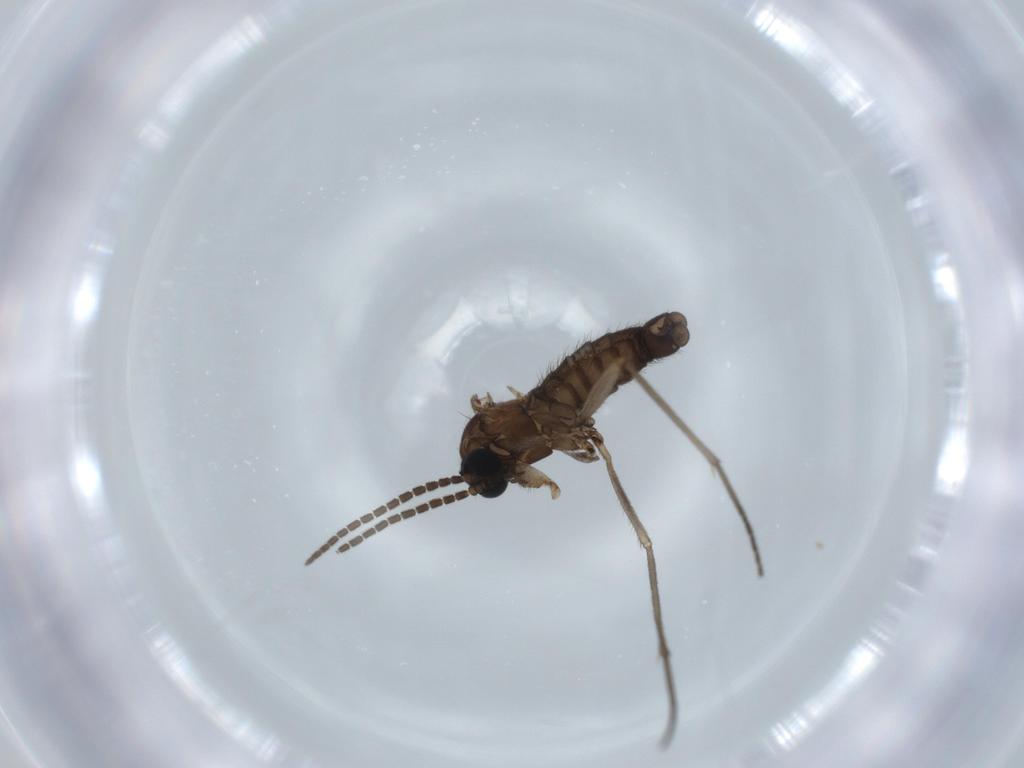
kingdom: Animalia
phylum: Arthropoda
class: Insecta
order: Diptera
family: Sciaridae
